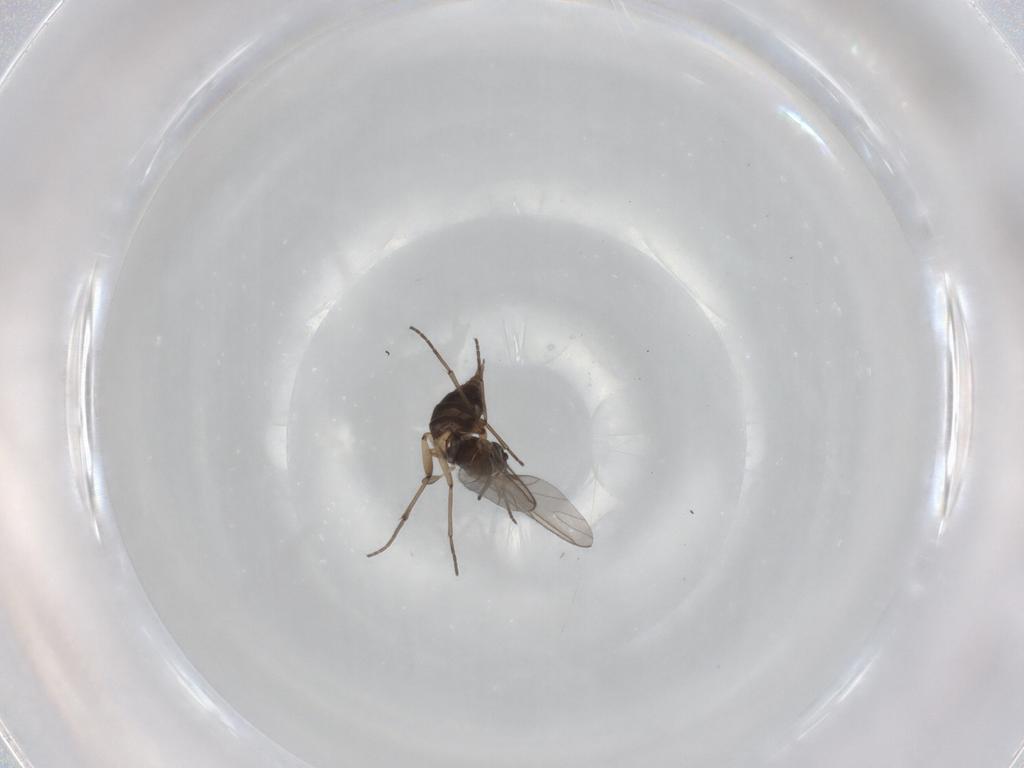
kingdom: Animalia
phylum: Arthropoda
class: Insecta
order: Diptera
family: Sciaridae
